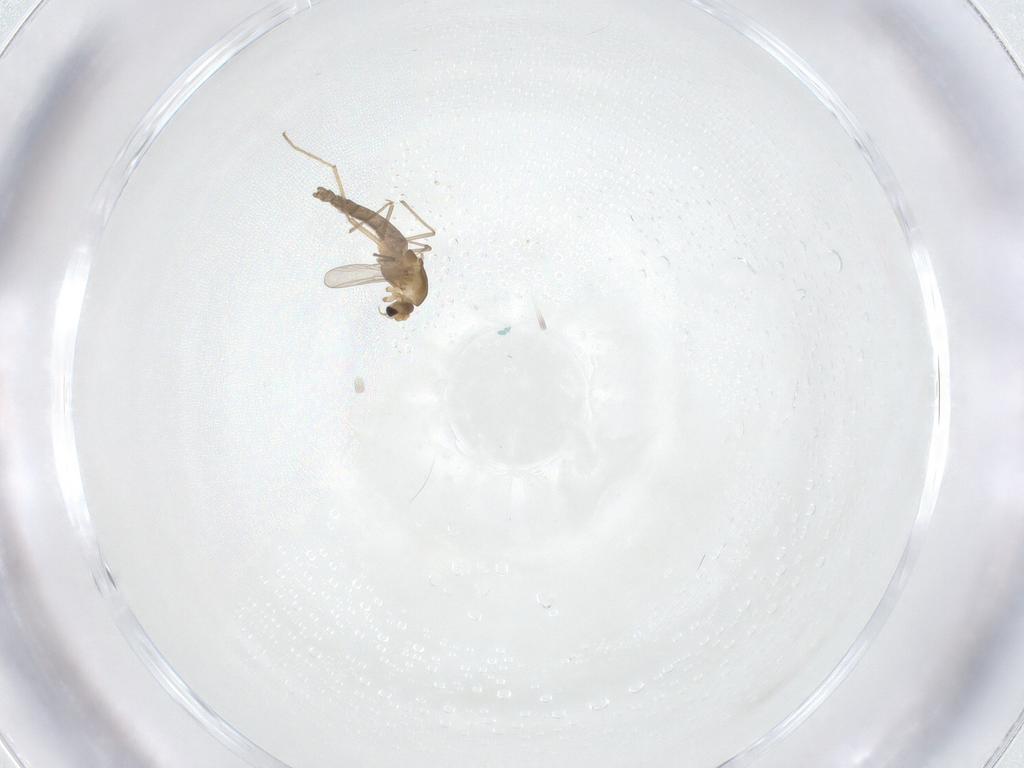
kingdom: Animalia
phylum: Arthropoda
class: Insecta
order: Diptera
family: Chironomidae
